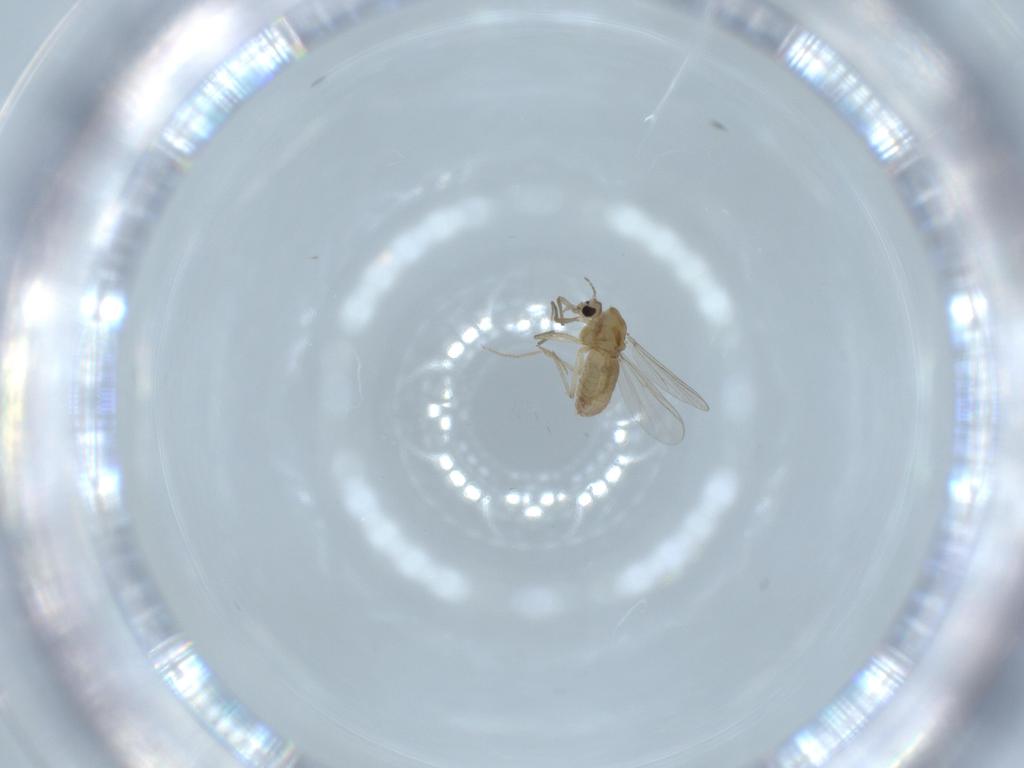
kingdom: Animalia
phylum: Arthropoda
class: Insecta
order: Diptera
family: Chironomidae
